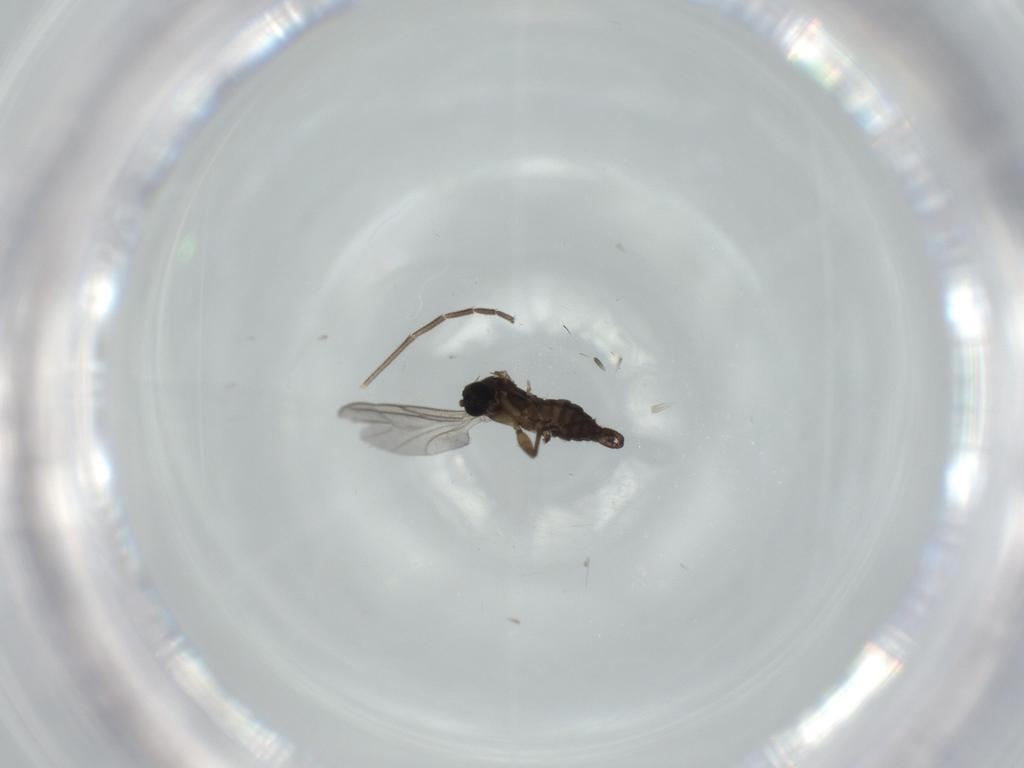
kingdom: Animalia
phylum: Arthropoda
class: Insecta
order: Diptera
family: Sciaridae
